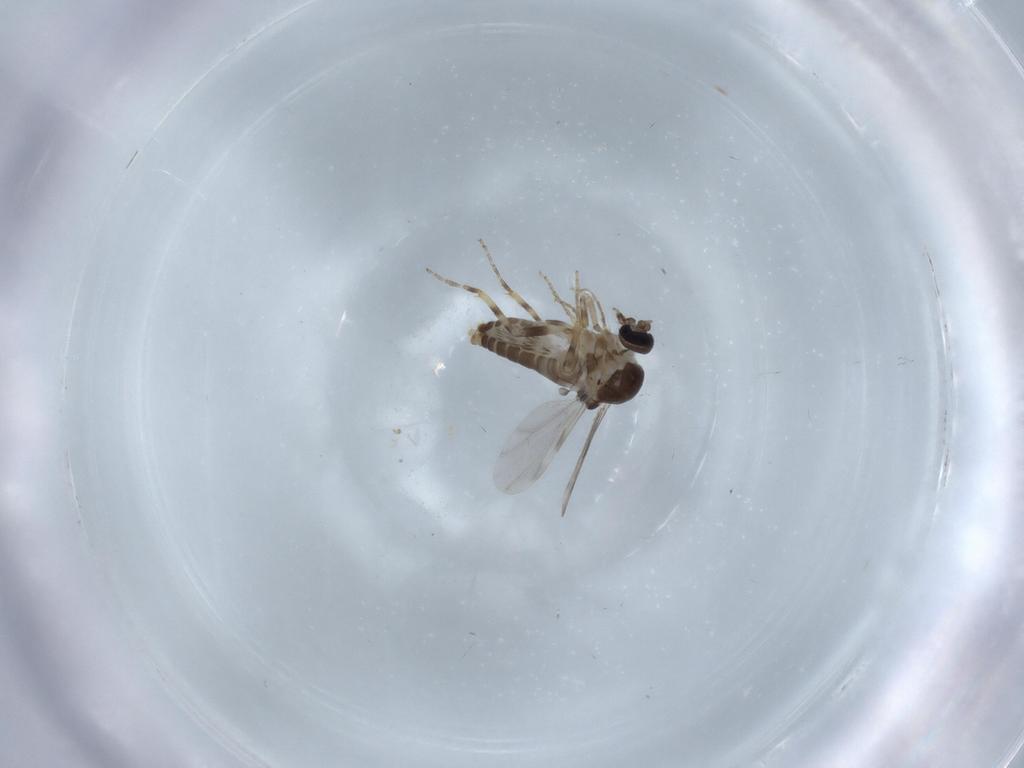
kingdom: Animalia
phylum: Arthropoda
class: Insecta
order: Diptera
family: Ceratopogonidae
